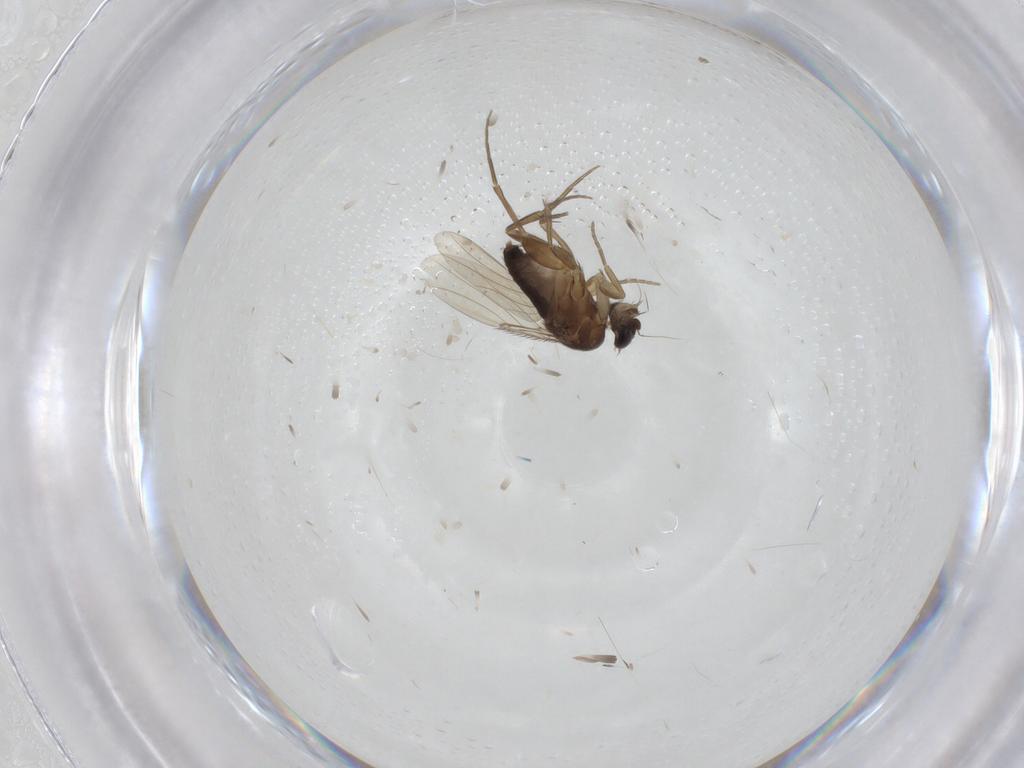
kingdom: Animalia
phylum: Arthropoda
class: Insecta
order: Diptera
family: Phoridae
